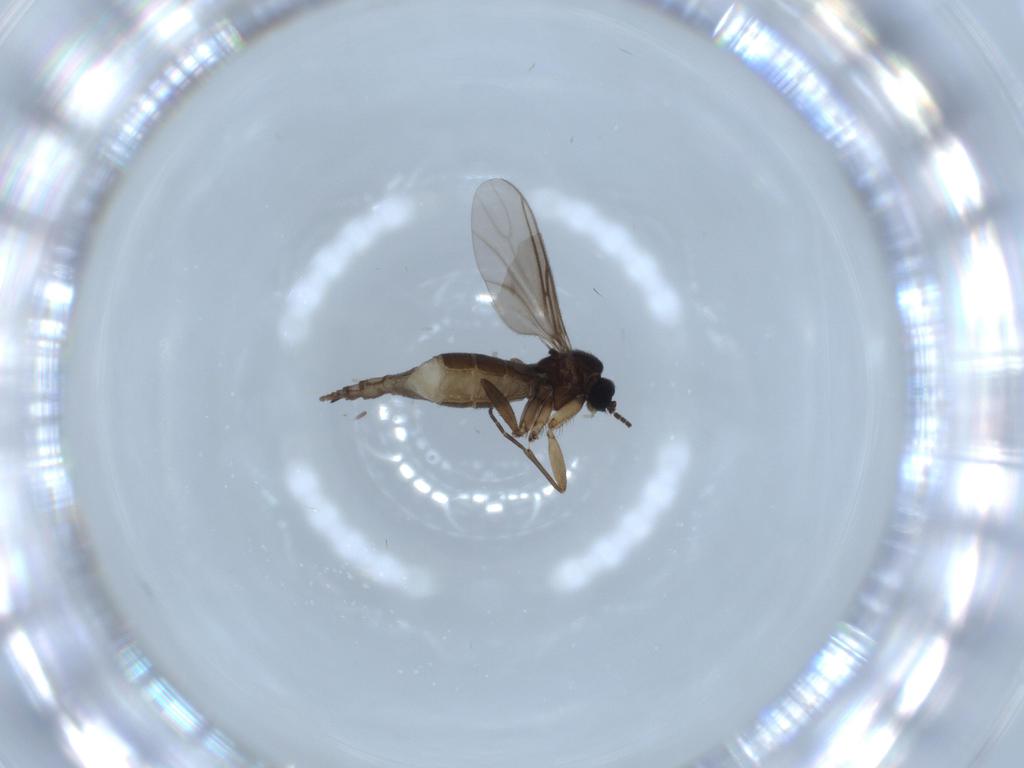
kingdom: Animalia
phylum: Arthropoda
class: Insecta
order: Diptera
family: Sciaridae
